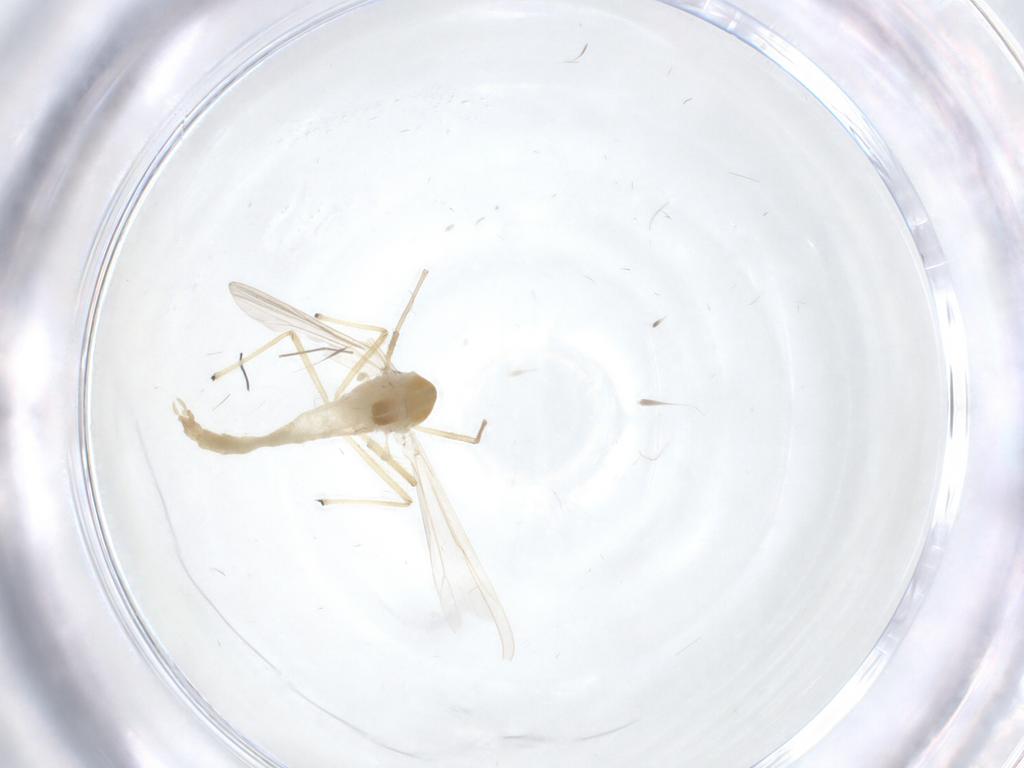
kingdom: Animalia
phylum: Arthropoda
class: Insecta
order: Diptera
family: Chironomidae
